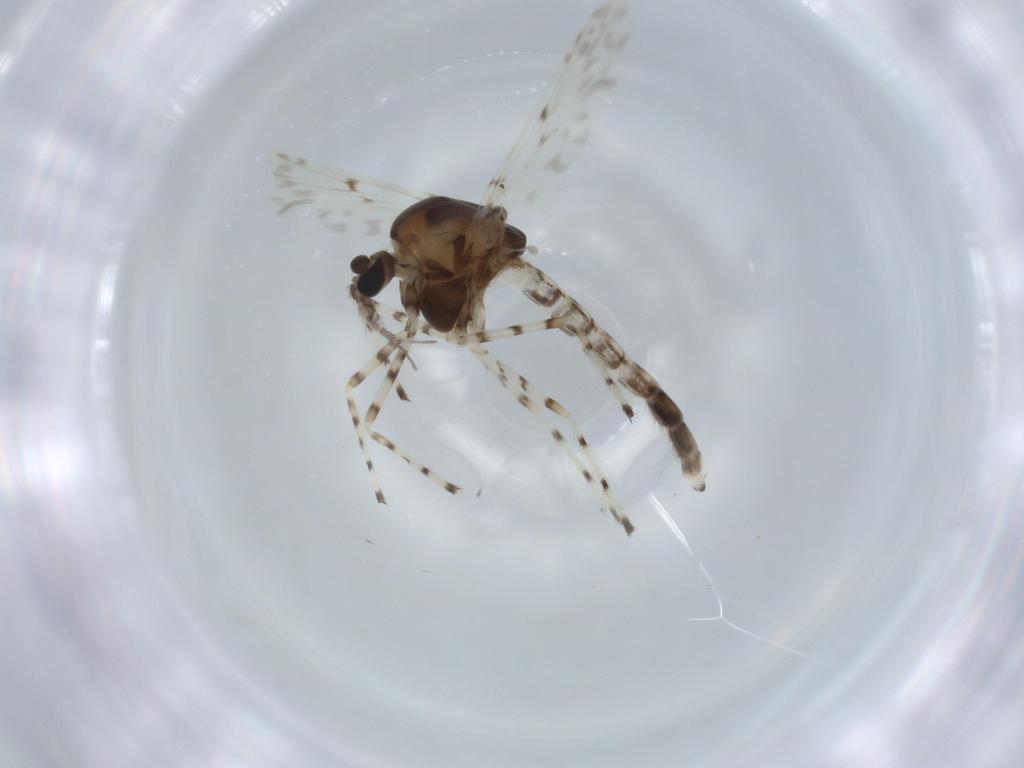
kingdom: Animalia
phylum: Arthropoda
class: Insecta
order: Diptera
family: Chironomidae
